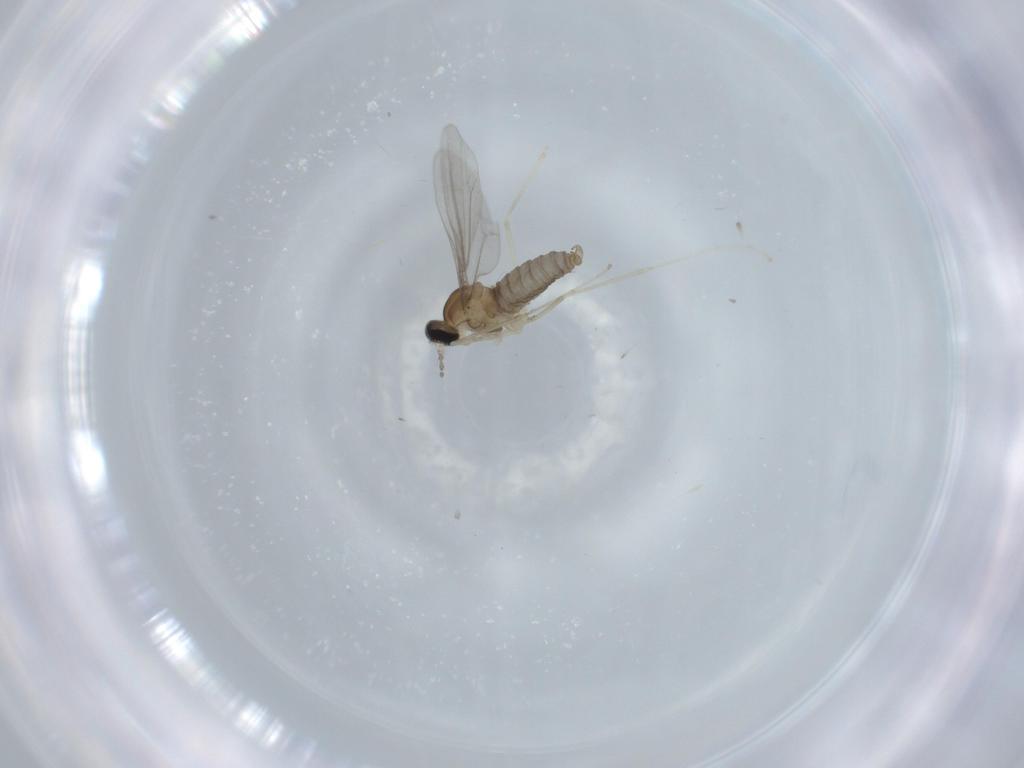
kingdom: Animalia
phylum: Arthropoda
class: Insecta
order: Diptera
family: Cecidomyiidae
